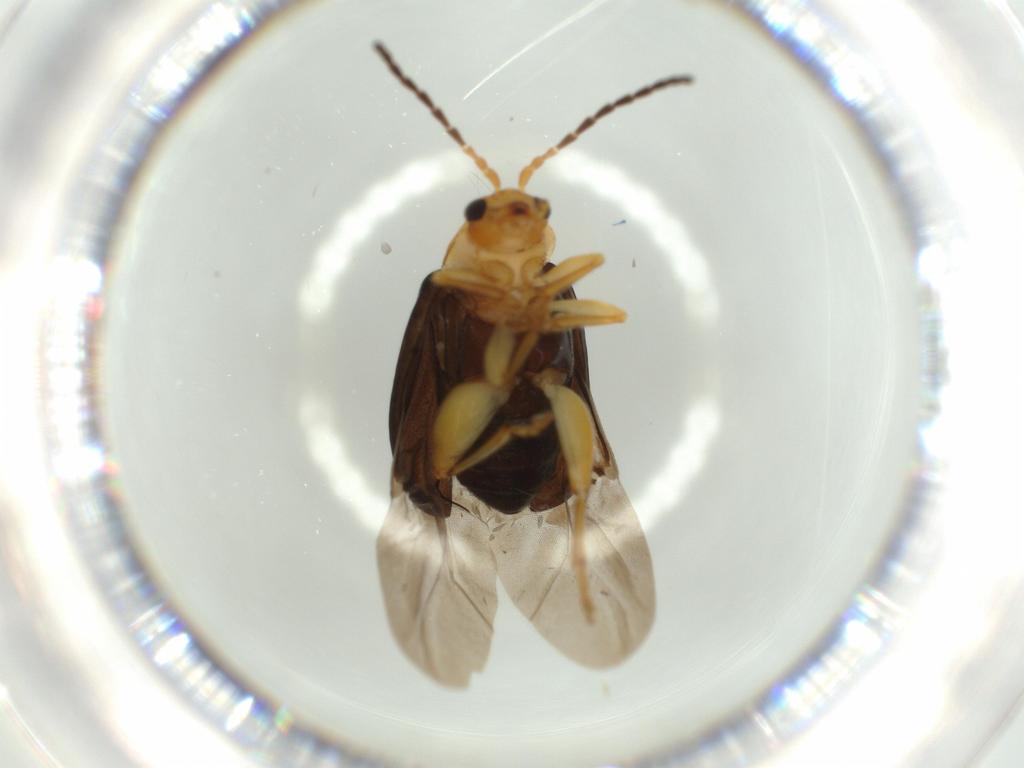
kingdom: Animalia
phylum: Arthropoda
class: Insecta
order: Coleoptera
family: Chrysomelidae
